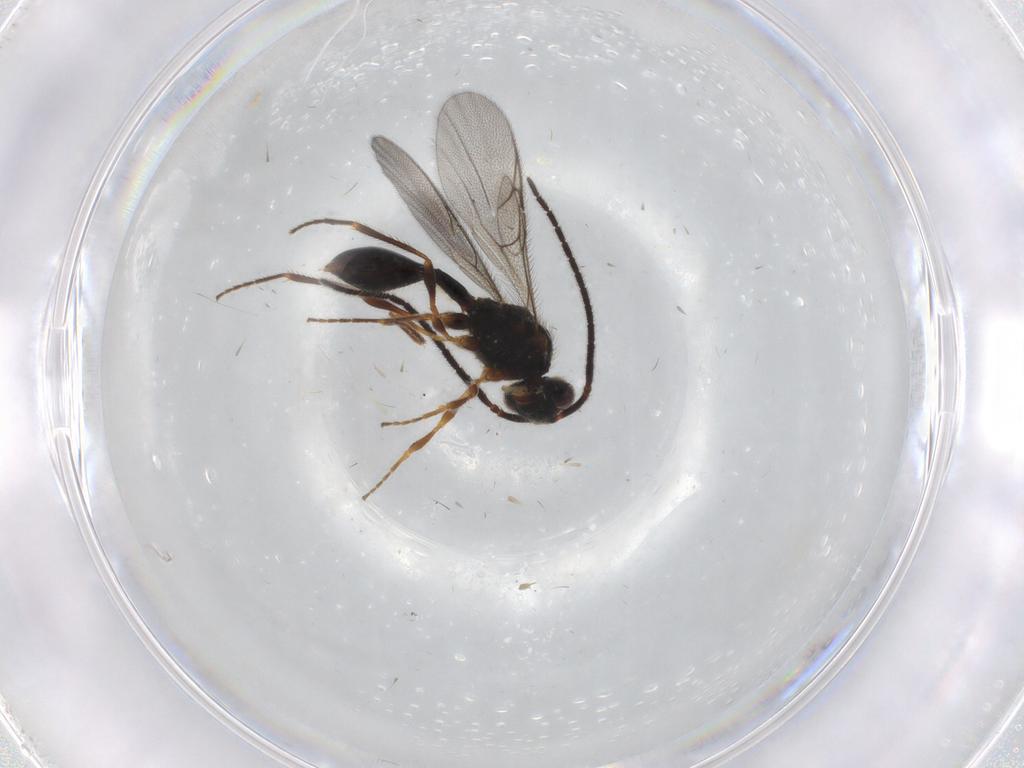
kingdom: Animalia
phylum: Arthropoda
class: Insecta
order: Hymenoptera
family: Diapriidae
